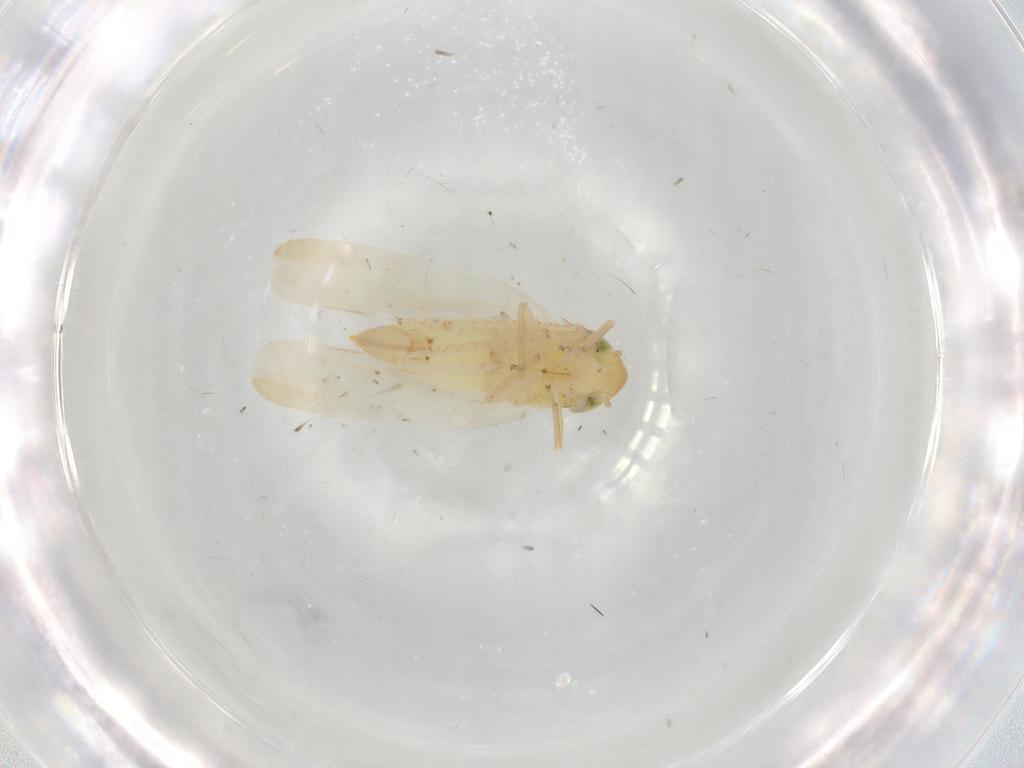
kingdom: Animalia
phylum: Arthropoda
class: Insecta
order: Hemiptera
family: Cicadellidae
